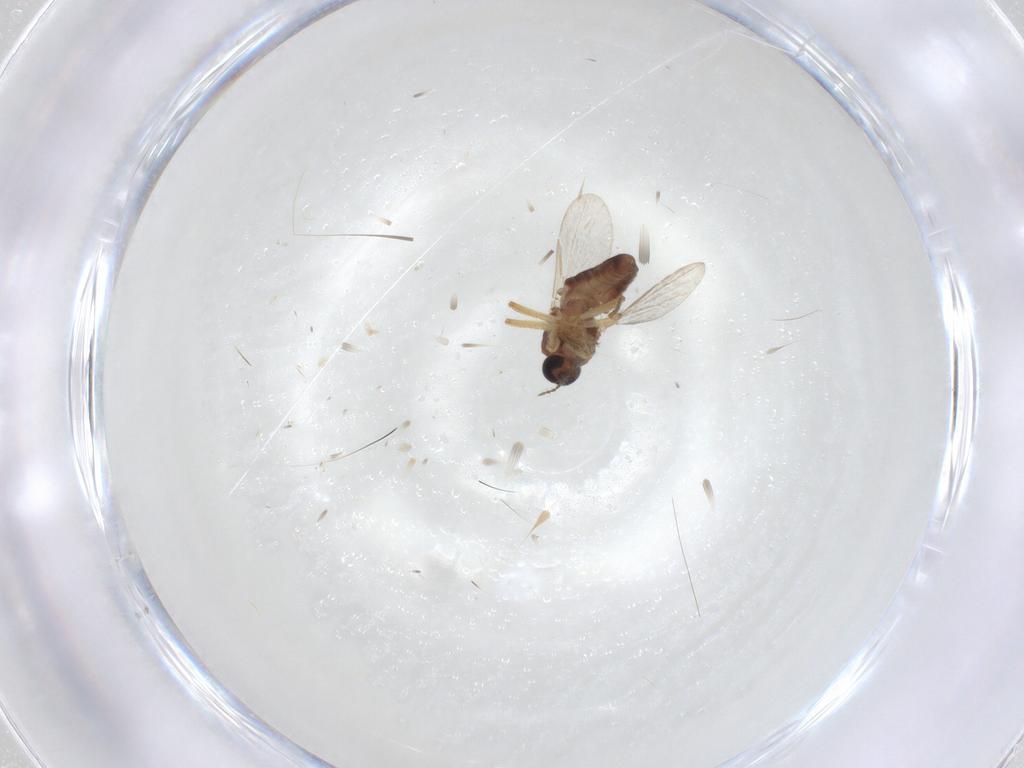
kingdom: Animalia
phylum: Arthropoda
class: Insecta
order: Diptera
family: Ceratopogonidae
